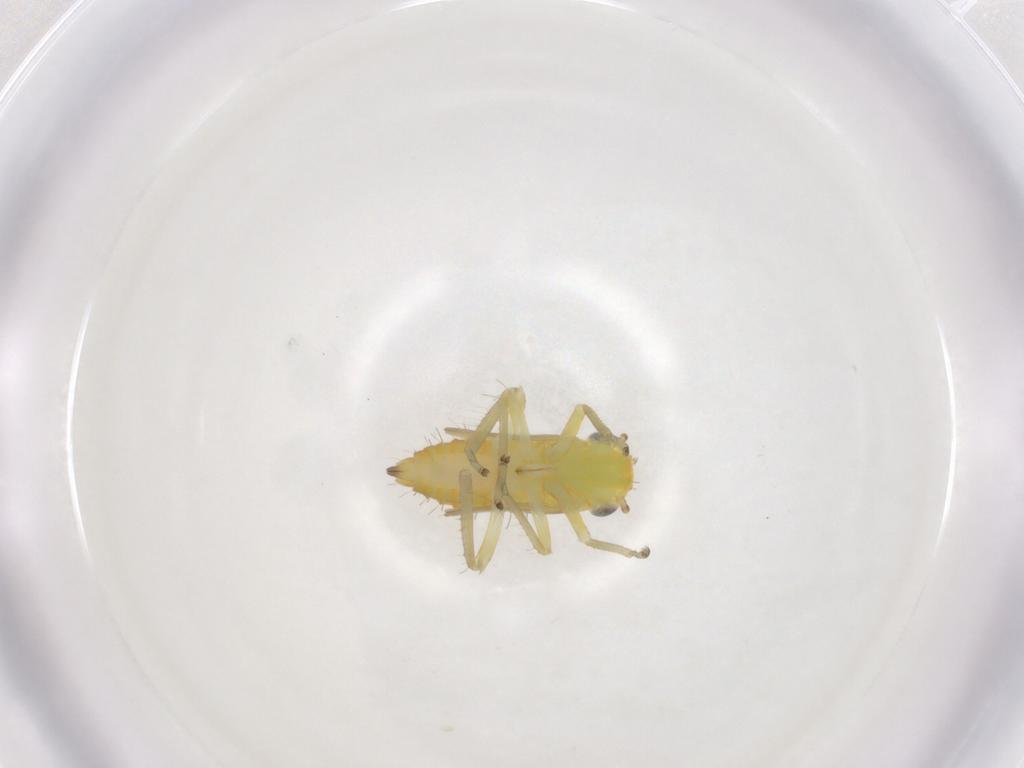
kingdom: Animalia
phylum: Arthropoda
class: Insecta
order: Hemiptera
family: Cicadellidae
